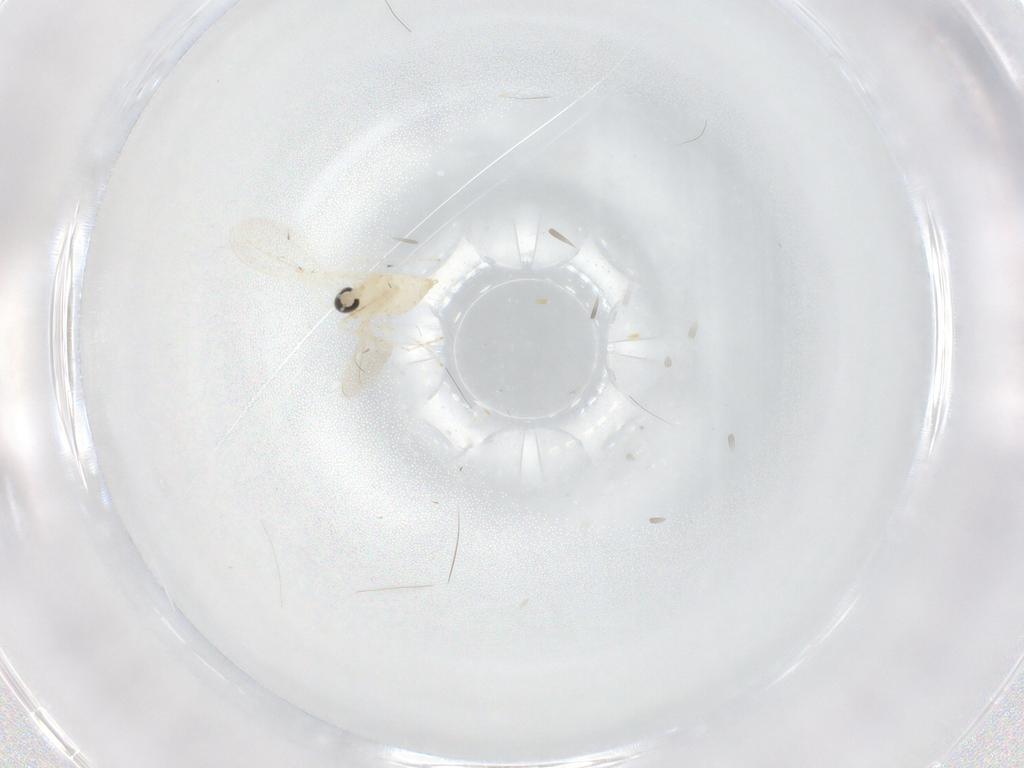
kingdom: Animalia
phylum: Arthropoda
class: Insecta
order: Diptera
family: Cecidomyiidae
